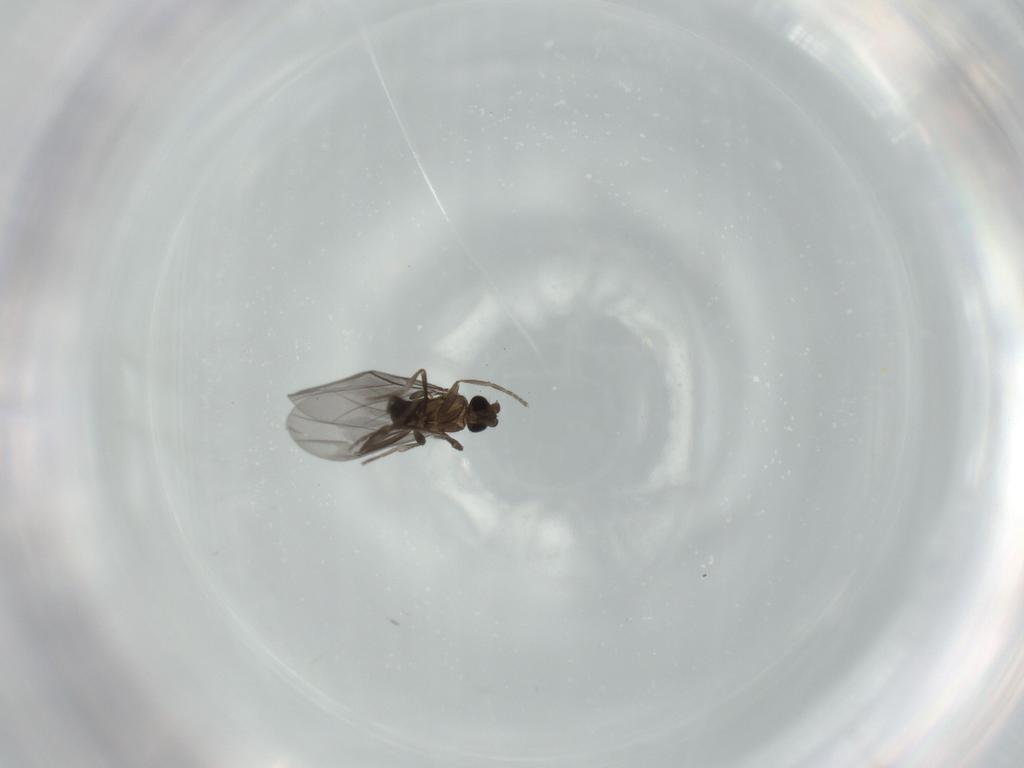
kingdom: Animalia
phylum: Arthropoda
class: Insecta
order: Diptera
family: Phoridae
